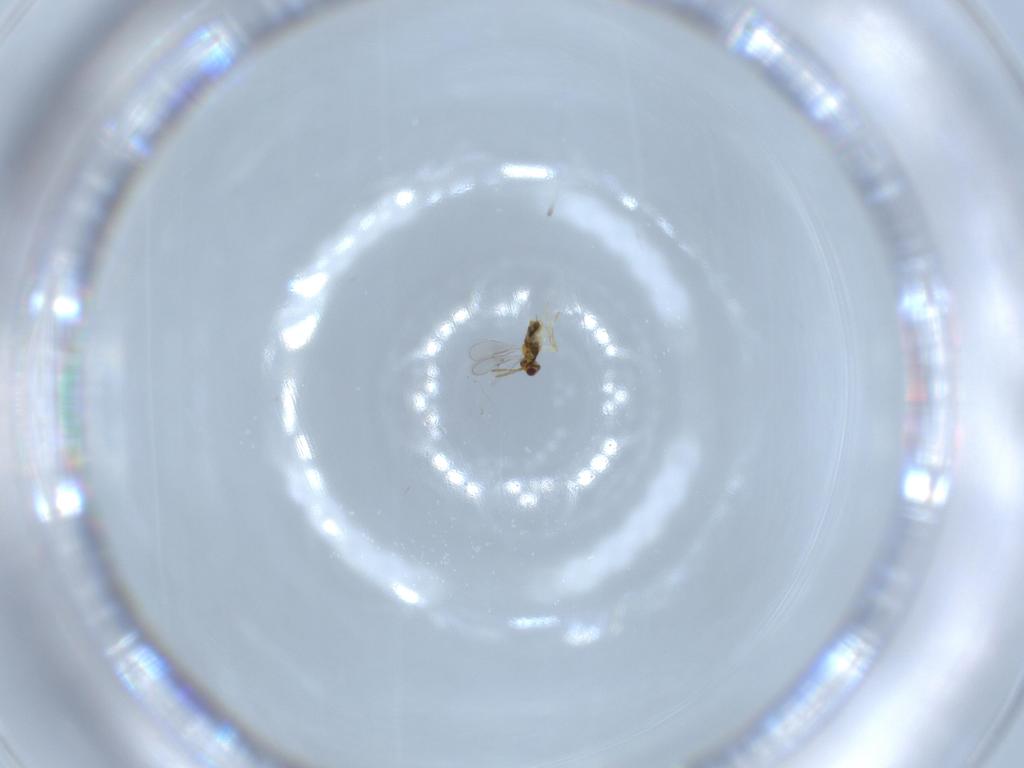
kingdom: Animalia
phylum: Arthropoda
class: Insecta
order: Hymenoptera
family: Aphelinidae
